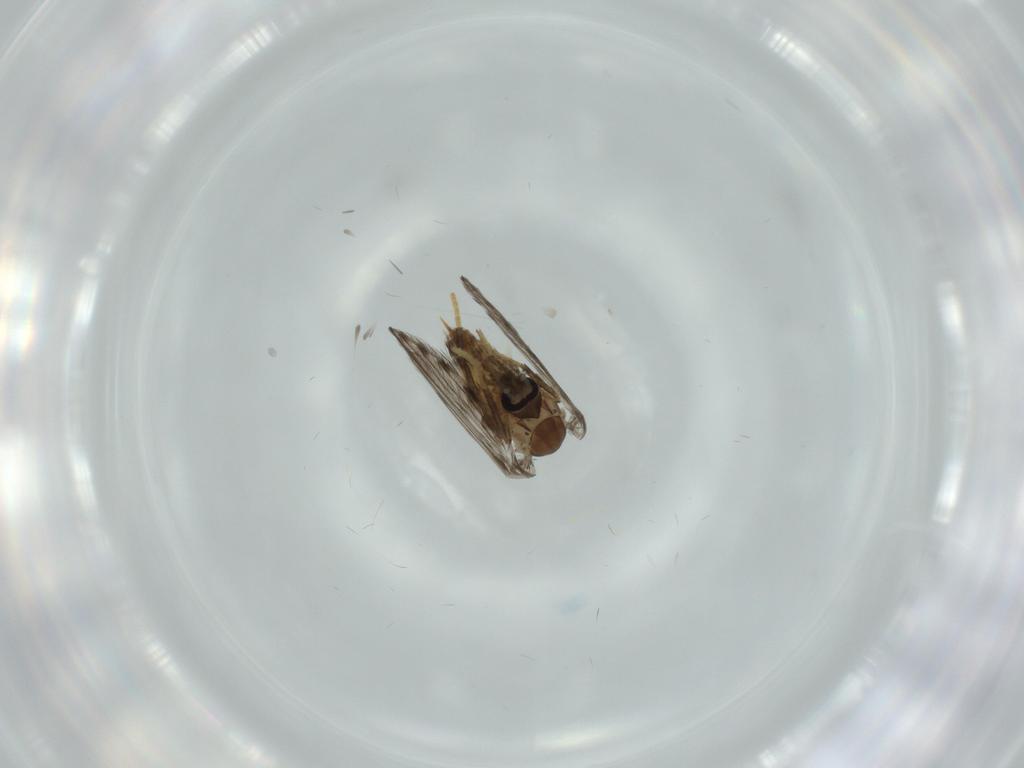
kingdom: Animalia
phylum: Arthropoda
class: Insecta
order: Diptera
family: Psychodidae
